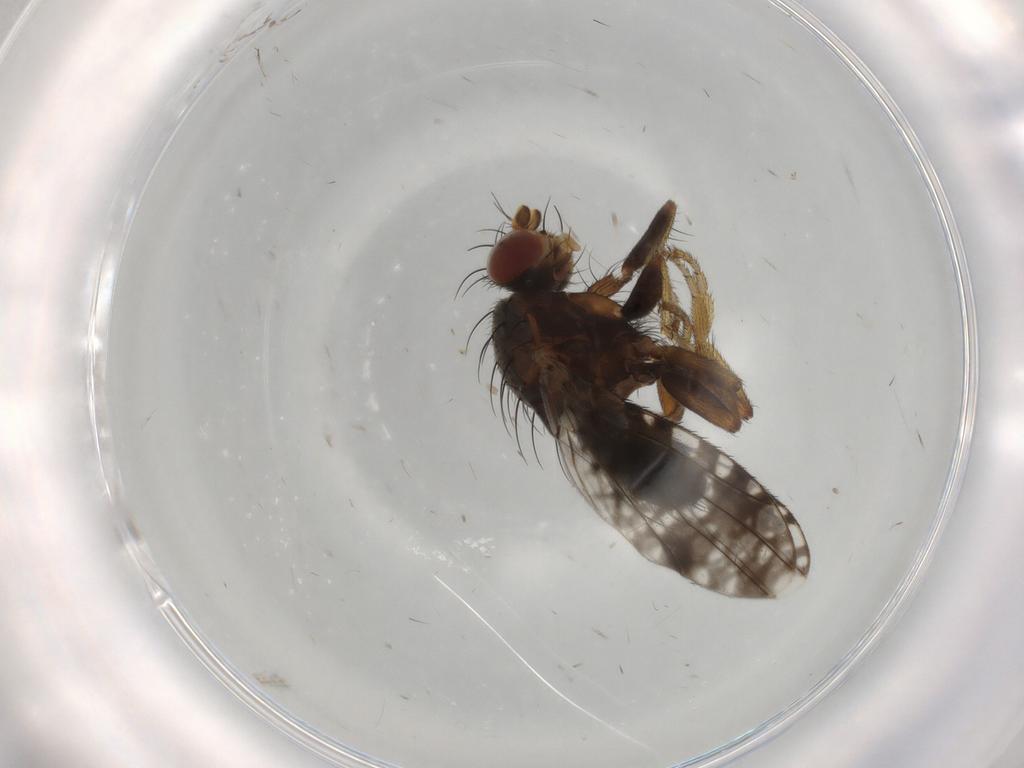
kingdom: Animalia
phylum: Arthropoda
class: Insecta
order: Diptera
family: Tephritidae
